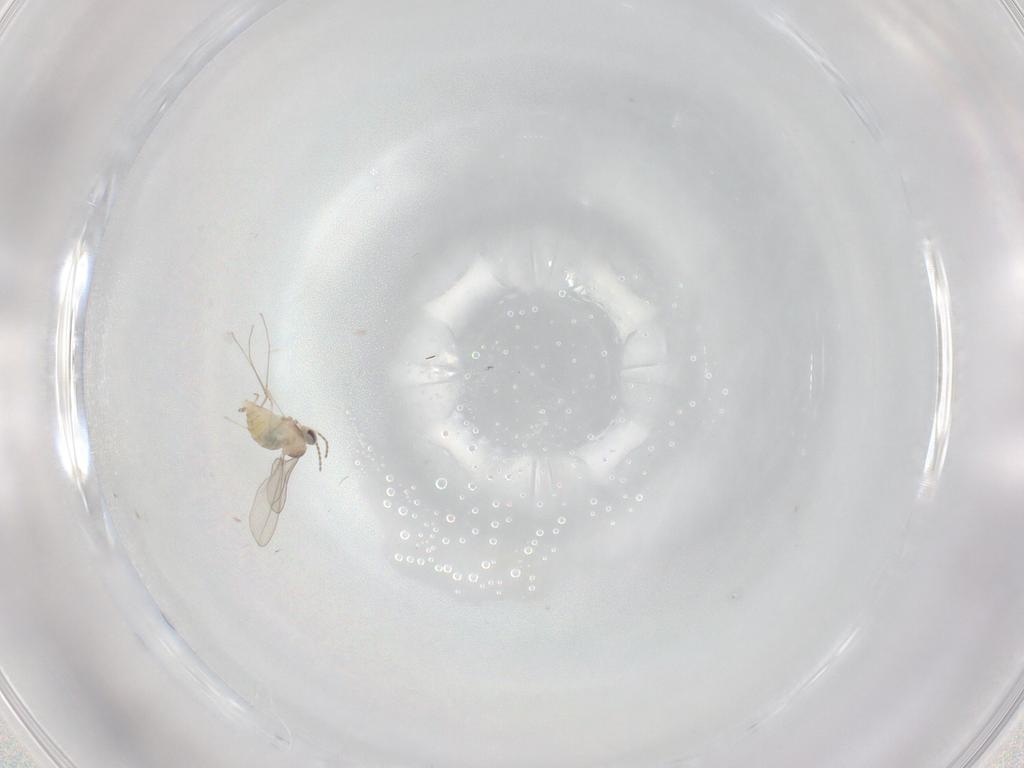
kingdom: Animalia
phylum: Arthropoda
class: Insecta
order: Diptera
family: Cecidomyiidae
